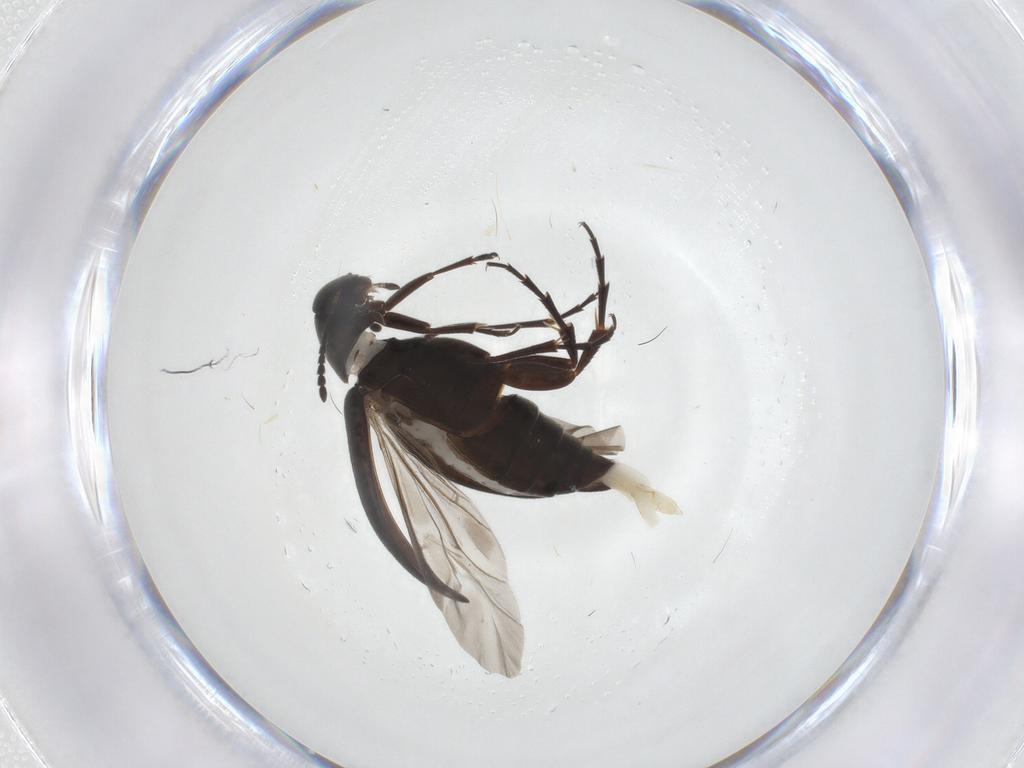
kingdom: Animalia
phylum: Arthropoda
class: Insecta
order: Coleoptera
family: Scraptiidae
